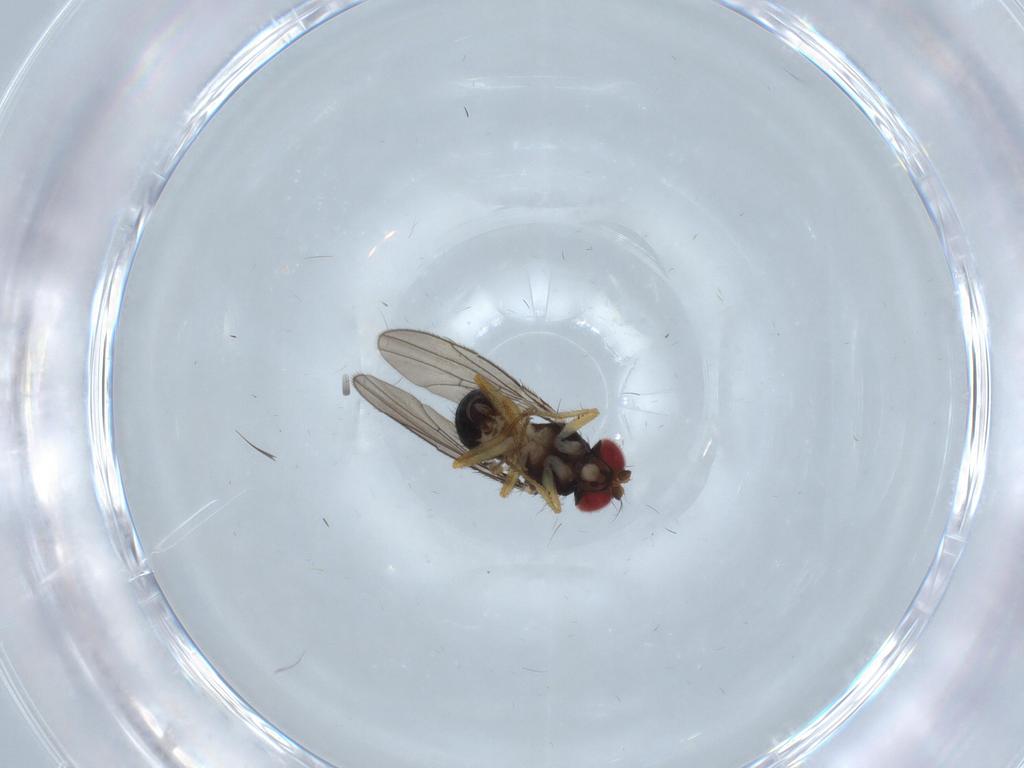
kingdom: Animalia
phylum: Arthropoda
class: Insecta
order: Diptera
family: Drosophilidae
